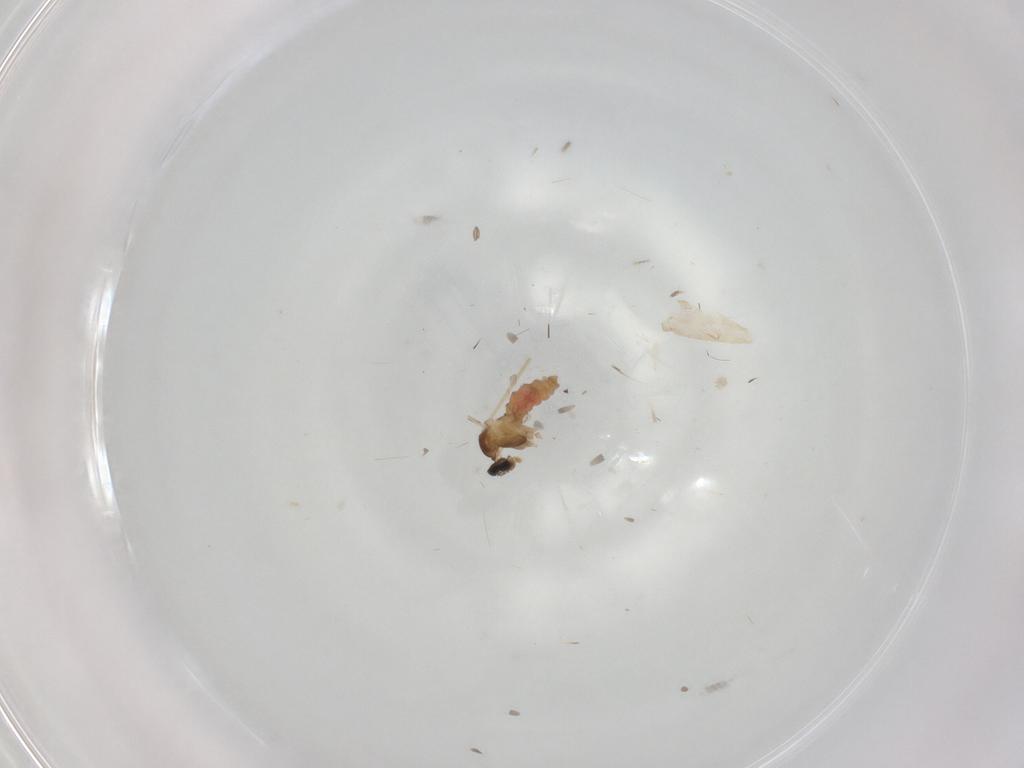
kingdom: Animalia
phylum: Arthropoda
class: Insecta
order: Diptera
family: Cecidomyiidae
